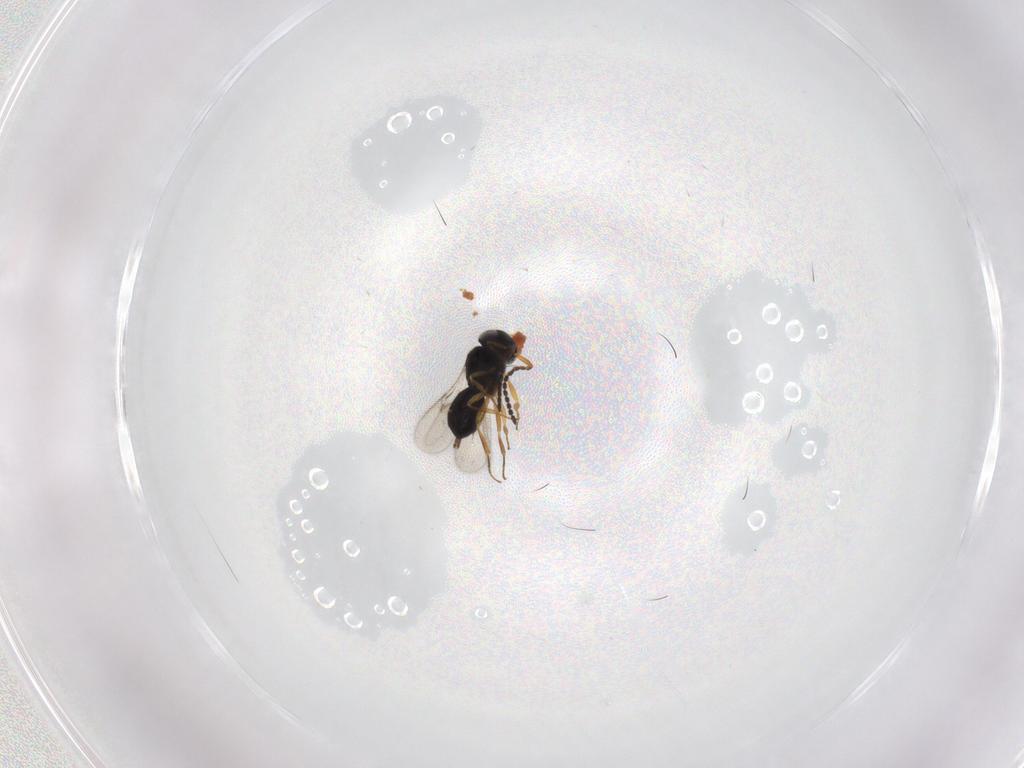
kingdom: Animalia
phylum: Arthropoda
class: Insecta
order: Hymenoptera
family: Scelionidae
